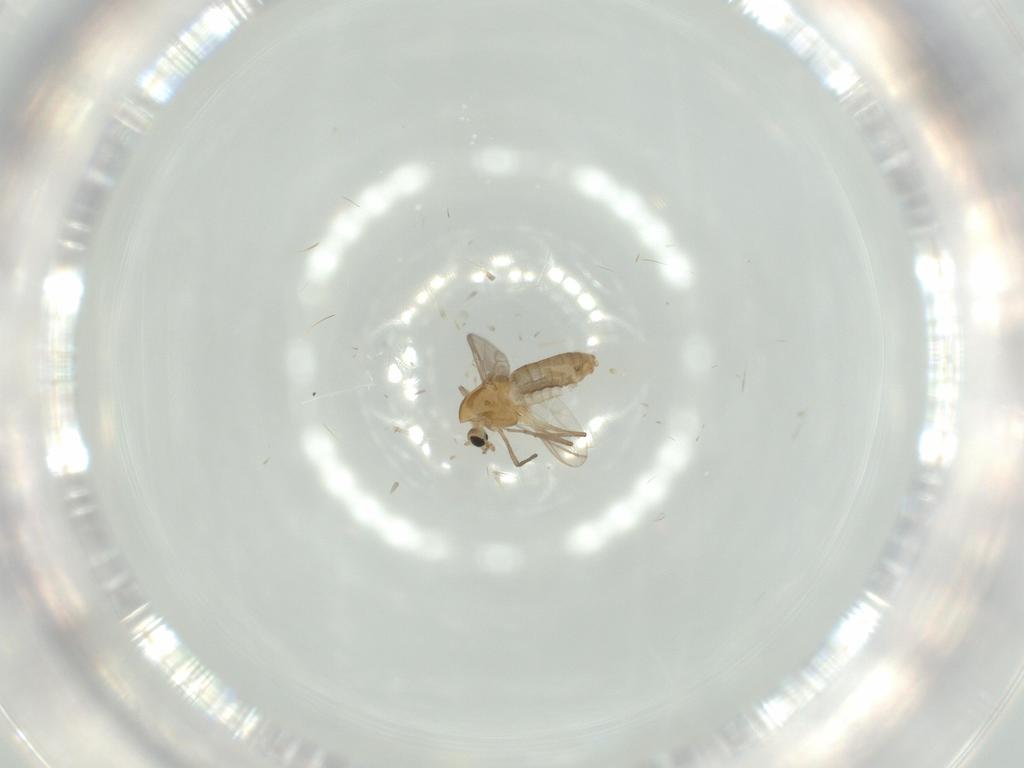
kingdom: Animalia
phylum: Arthropoda
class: Insecta
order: Diptera
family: Chironomidae
